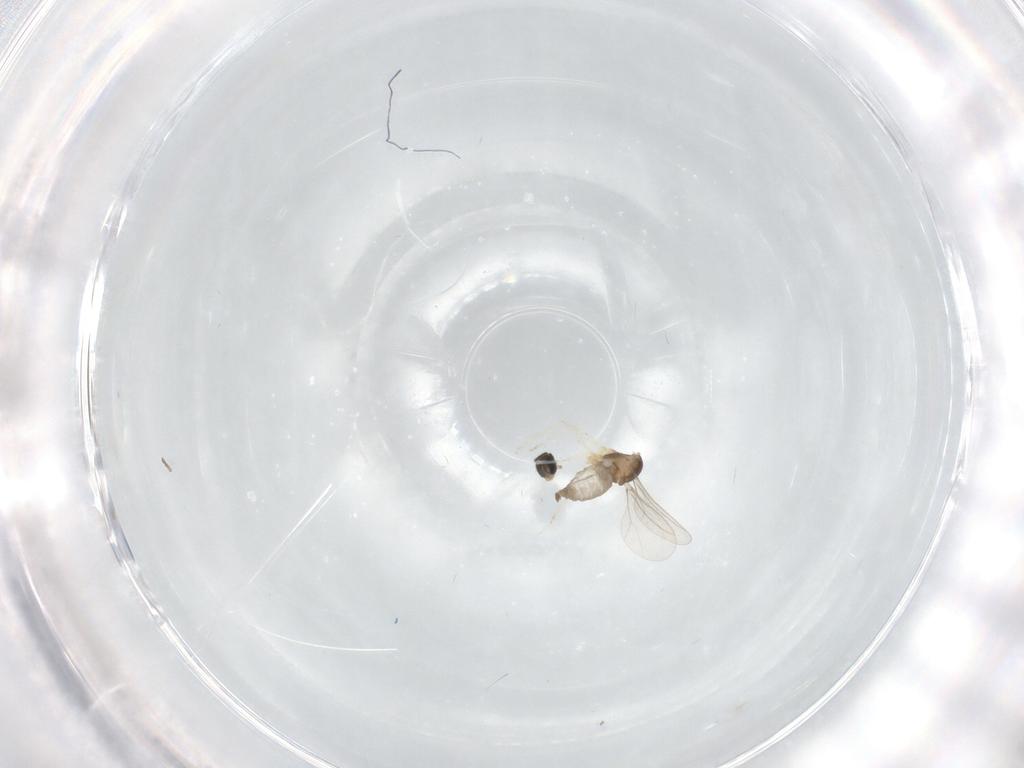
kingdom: Animalia
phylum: Arthropoda
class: Insecta
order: Diptera
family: Cecidomyiidae
